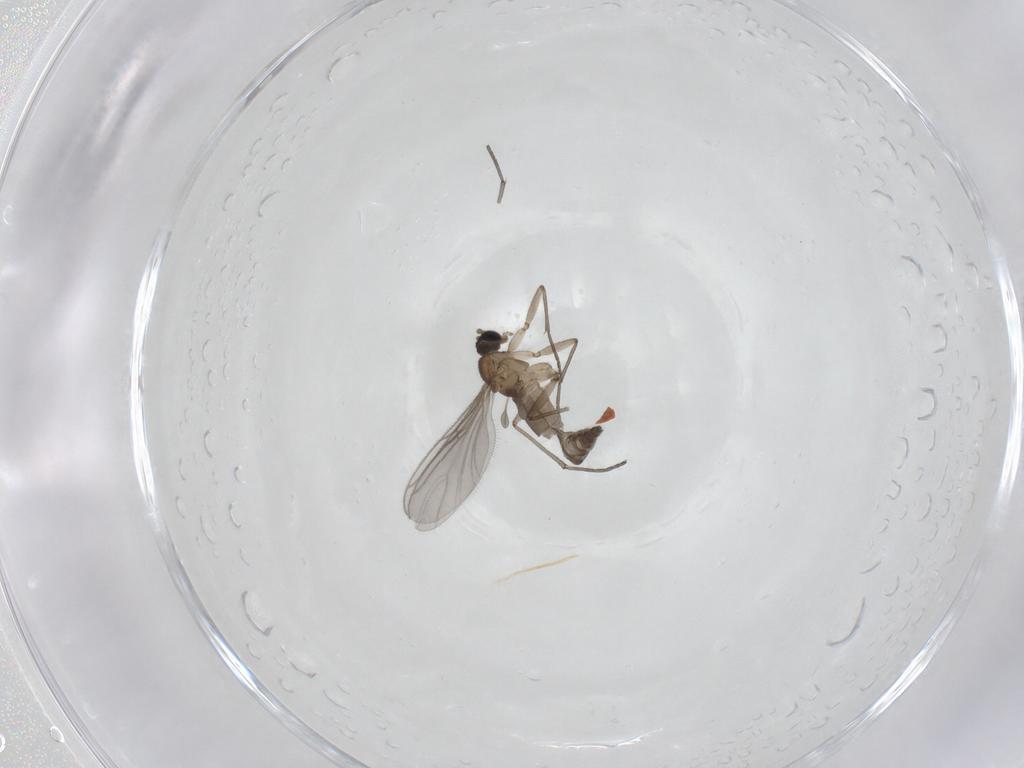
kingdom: Animalia
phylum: Arthropoda
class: Insecta
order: Diptera
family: Sciaridae
